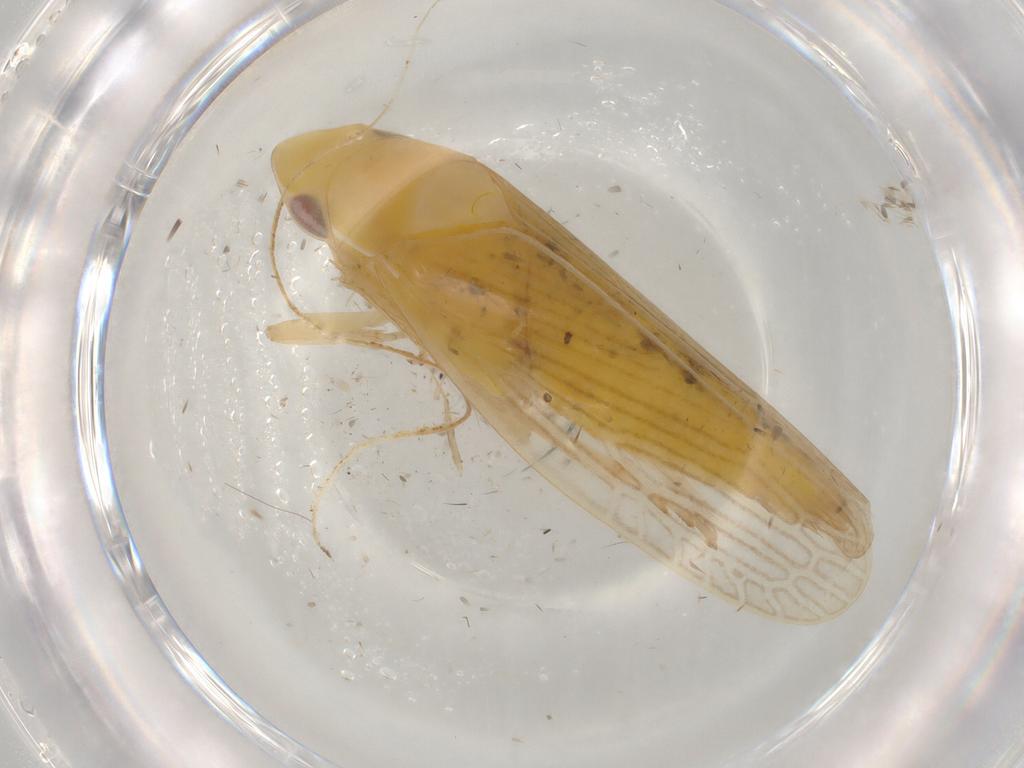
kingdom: Animalia
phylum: Arthropoda
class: Insecta
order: Hemiptera
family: Cicadellidae
